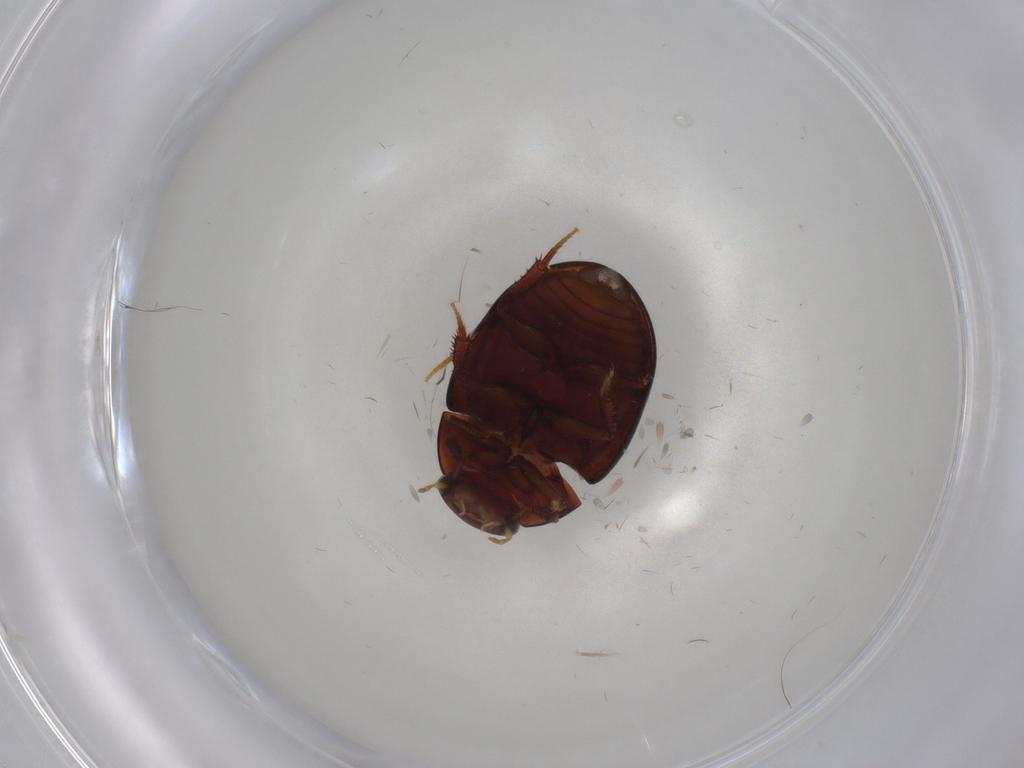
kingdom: Animalia
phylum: Arthropoda
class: Insecta
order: Coleoptera
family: Hydrophilidae
